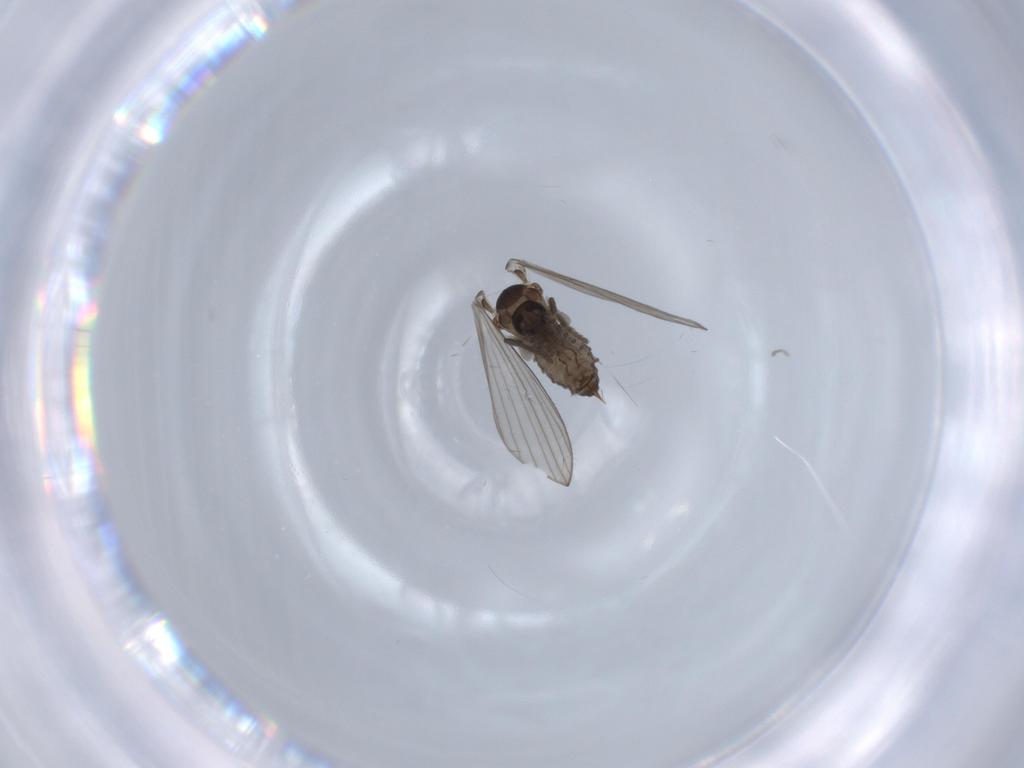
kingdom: Animalia
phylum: Arthropoda
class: Insecta
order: Diptera
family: Psychodidae
